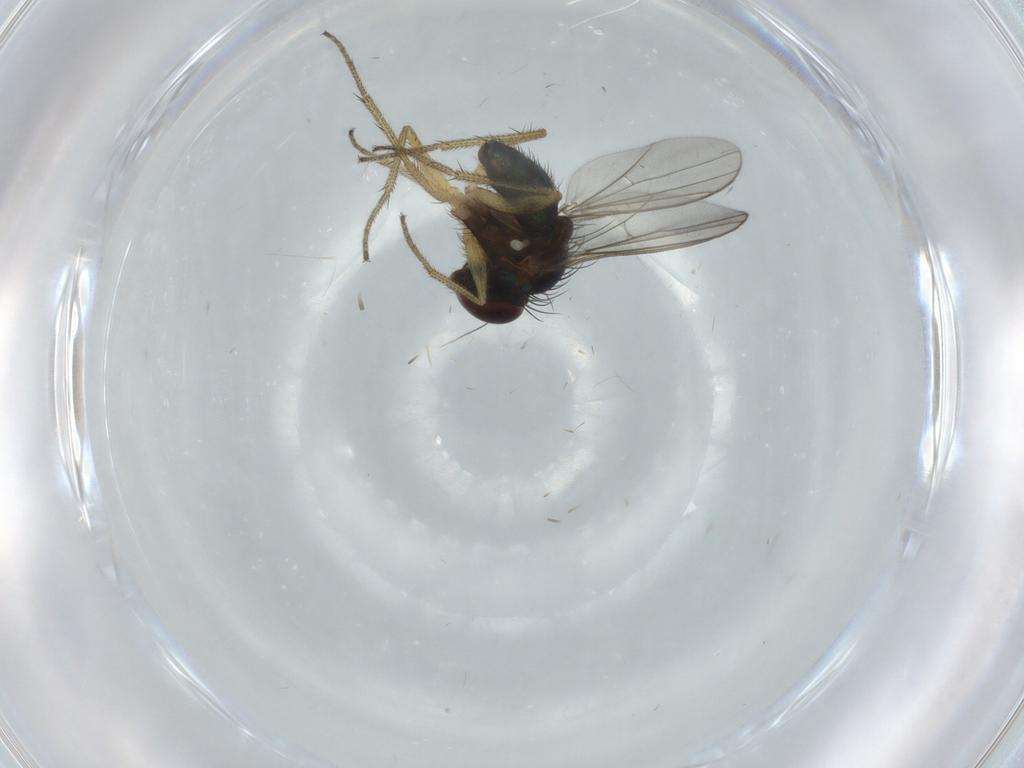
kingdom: Animalia
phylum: Arthropoda
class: Insecta
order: Diptera
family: Dolichopodidae
